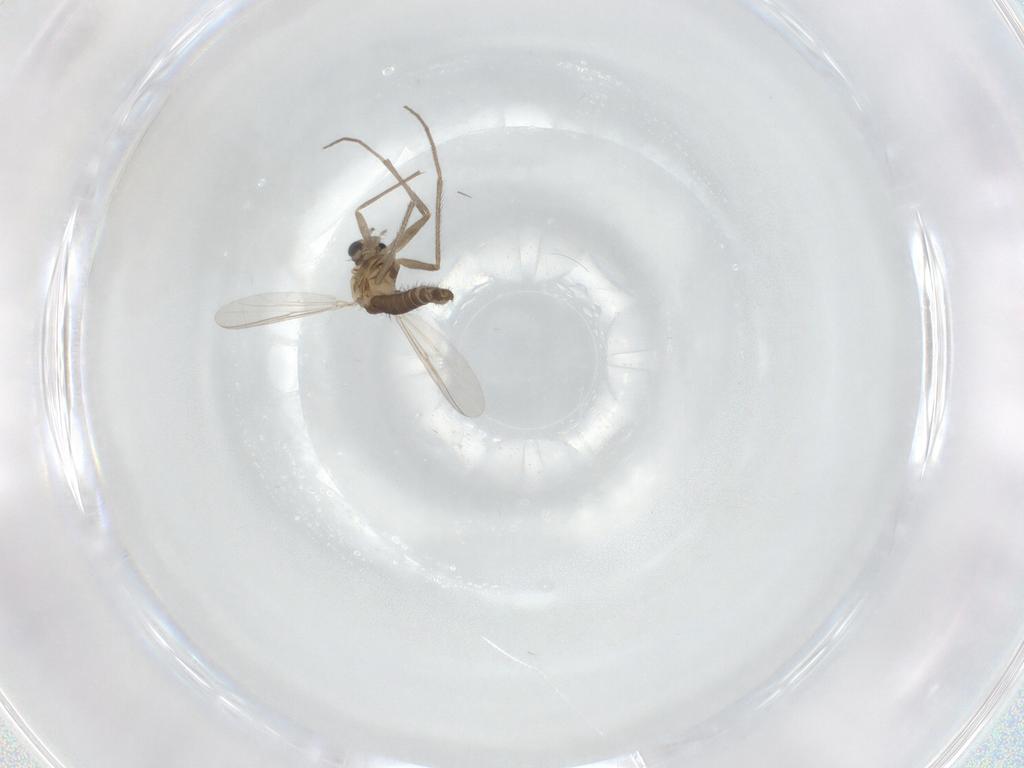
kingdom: Animalia
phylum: Arthropoda
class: Insecta
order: Diptera
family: Chironomidae
